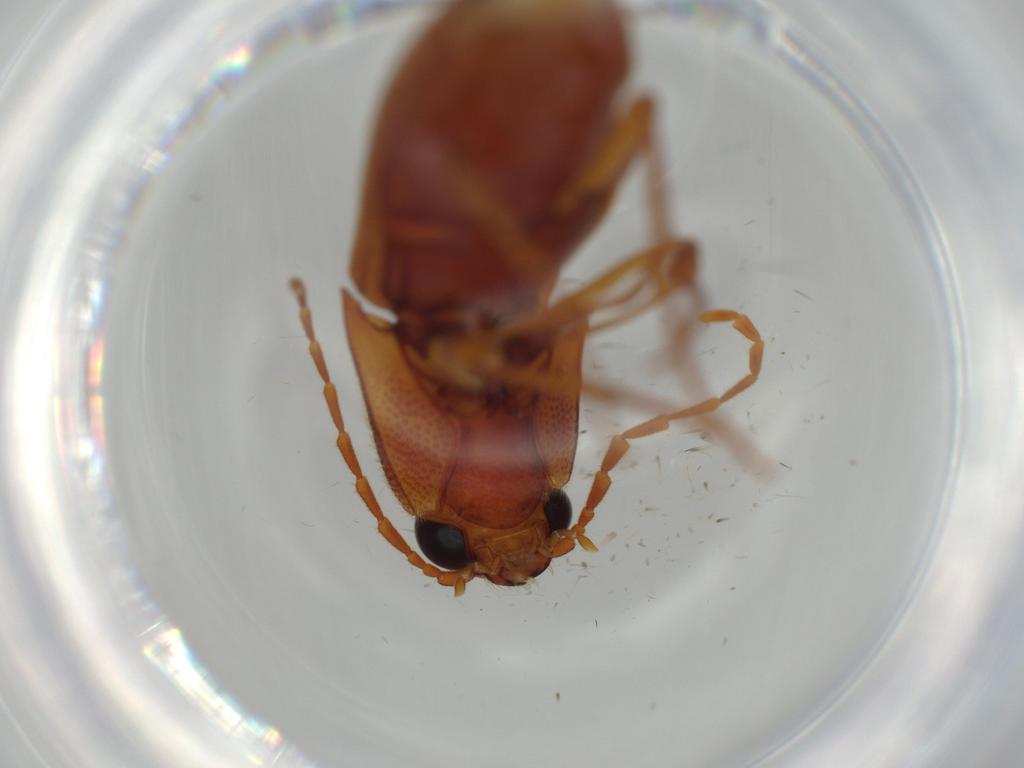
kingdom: Animalia
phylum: Arthropoda
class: Insecta
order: Coleoptera
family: Elateridae
